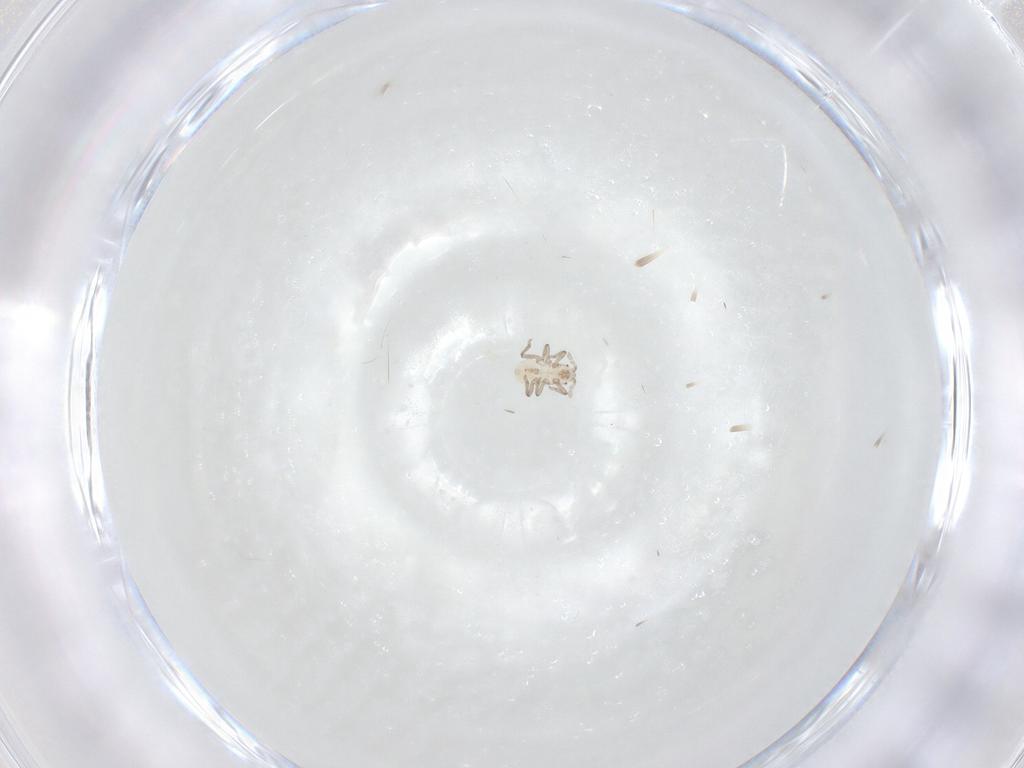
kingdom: Animalia
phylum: Arthropoda
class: Insecta
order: Hemiptera
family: Aphididae
